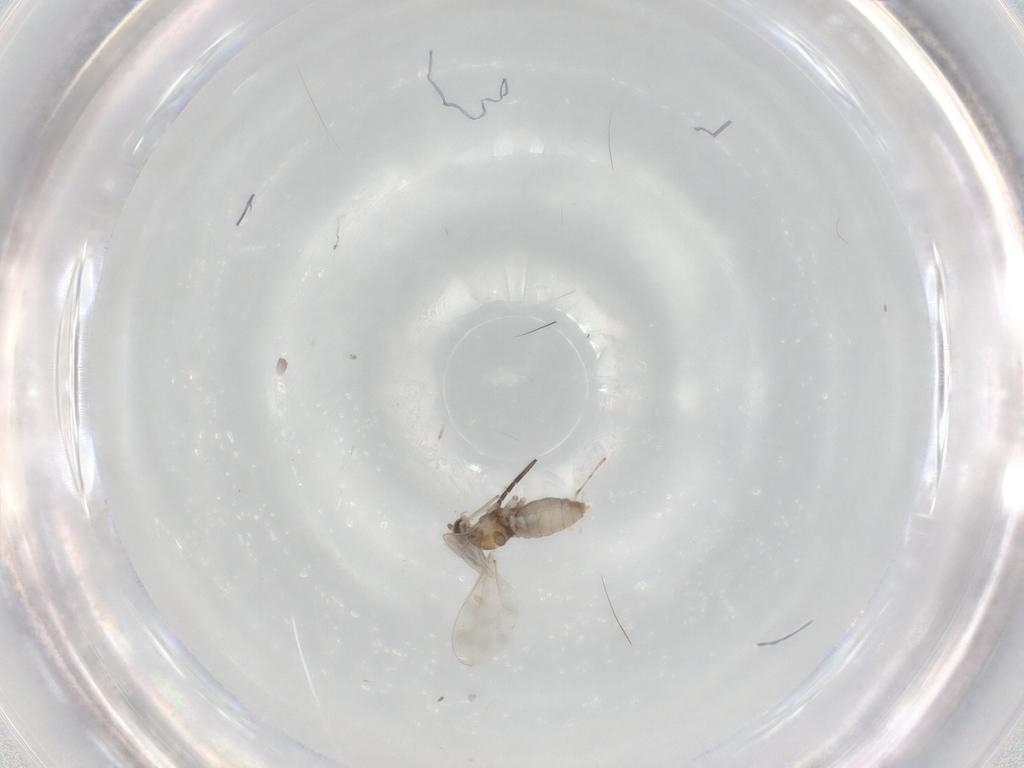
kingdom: Animalia
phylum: Arthropoda
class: Insecta
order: Diptera
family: Sciaridae
